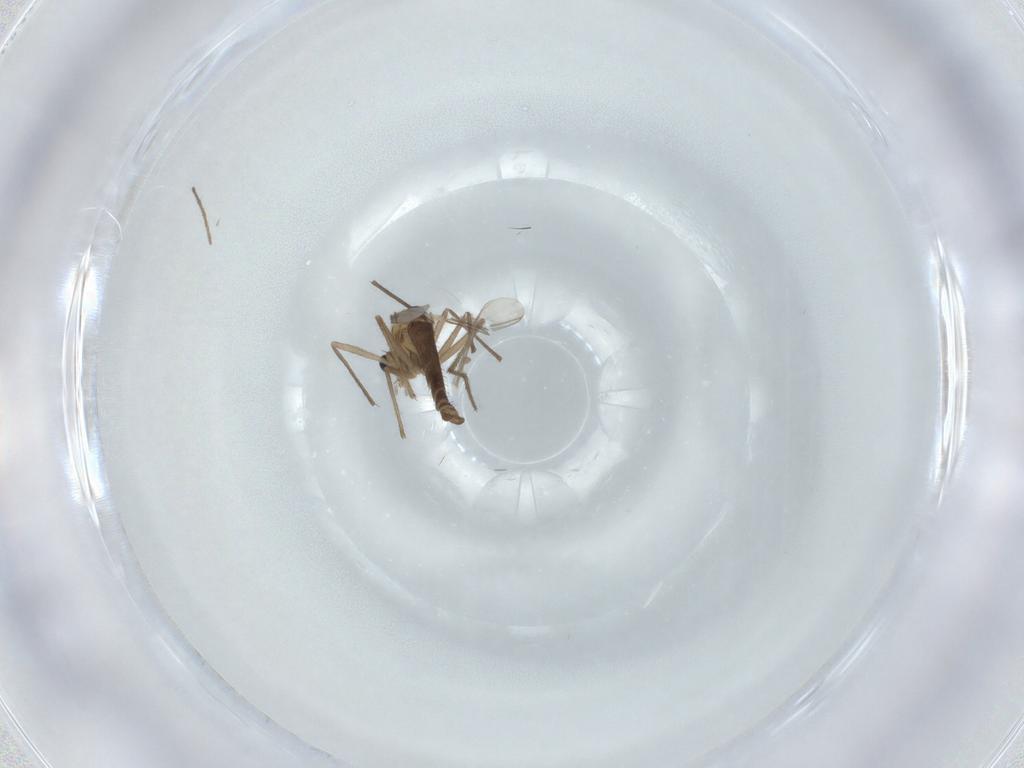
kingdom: Animalia
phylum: Arthropoda
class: Insecta
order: Diptera
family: Chironomidae
